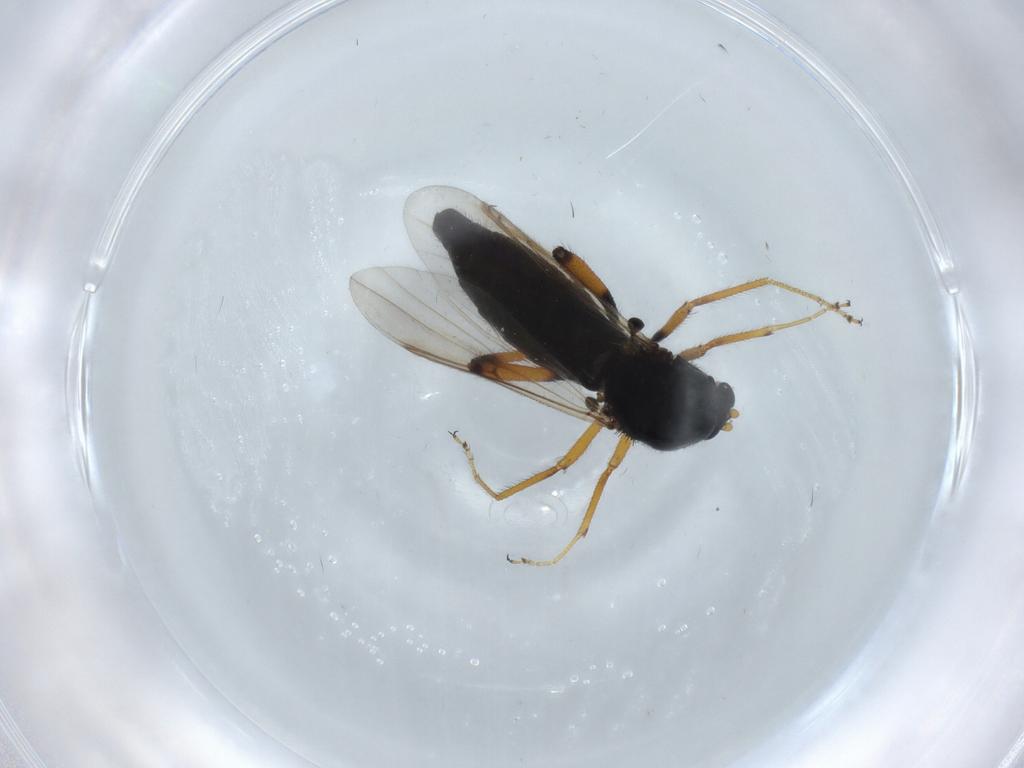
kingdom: Animalia
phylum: Arthropoda
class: Insecta
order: Diptera
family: Ceratopogonidae
